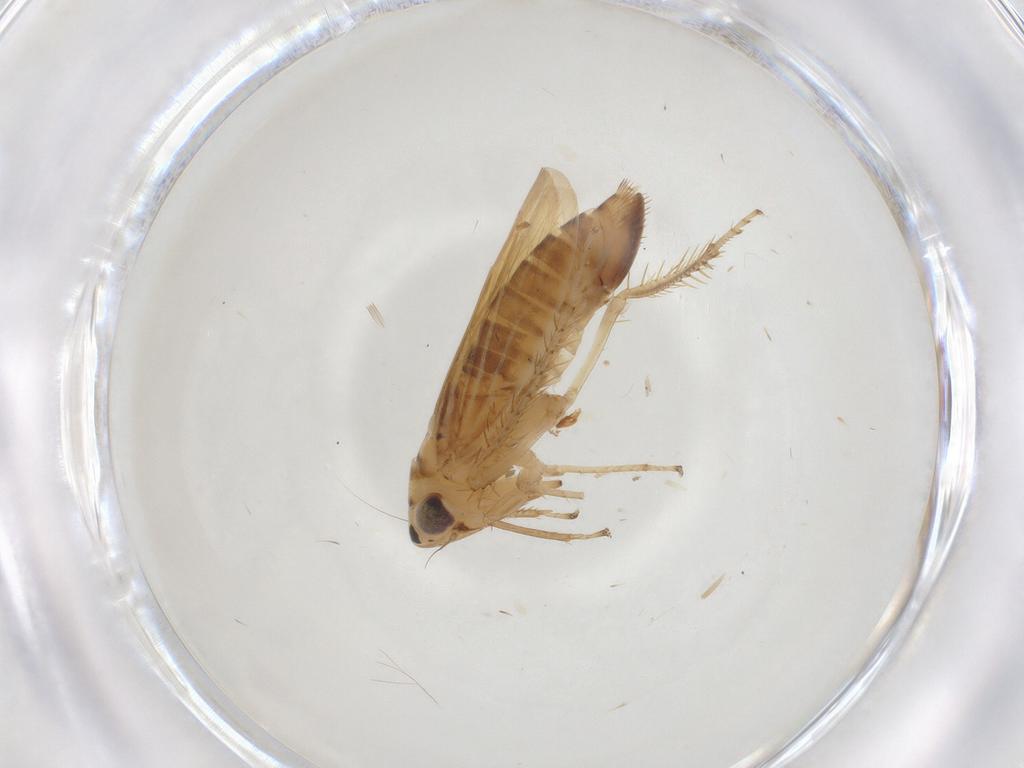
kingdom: Animalia
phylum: Arthropoda
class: Insecta
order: Hemiptera
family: Cicadellidae
